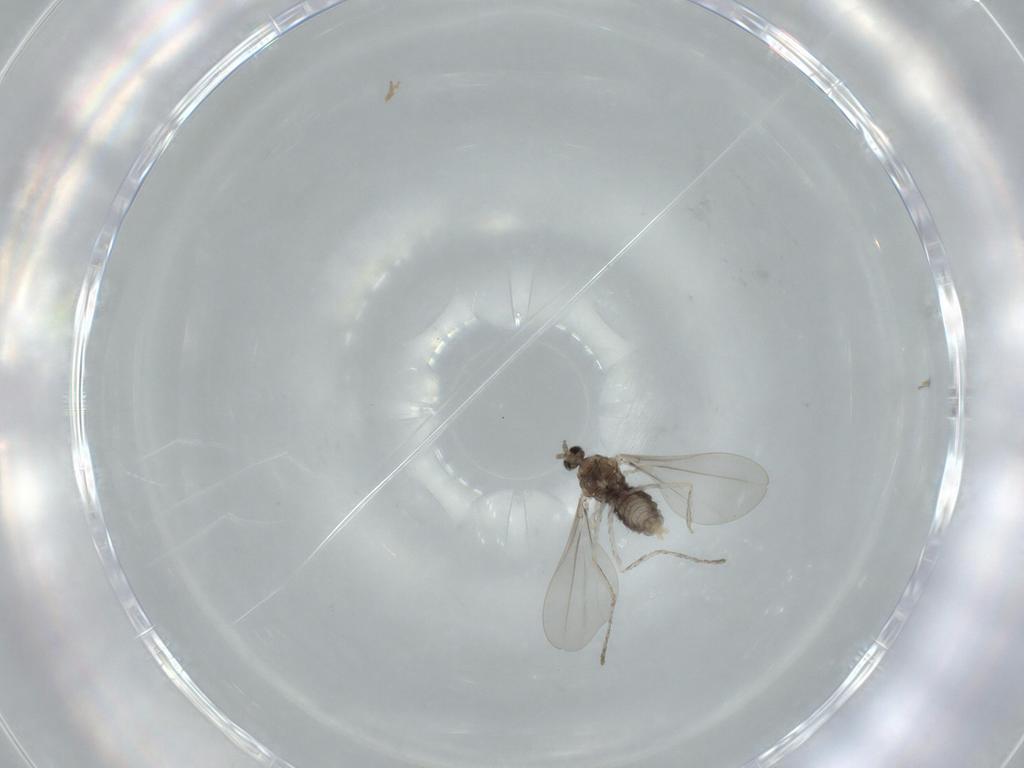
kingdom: Animalia
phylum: Arthropoda
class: Insecta
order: Diptera
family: Cecidomyiidae
